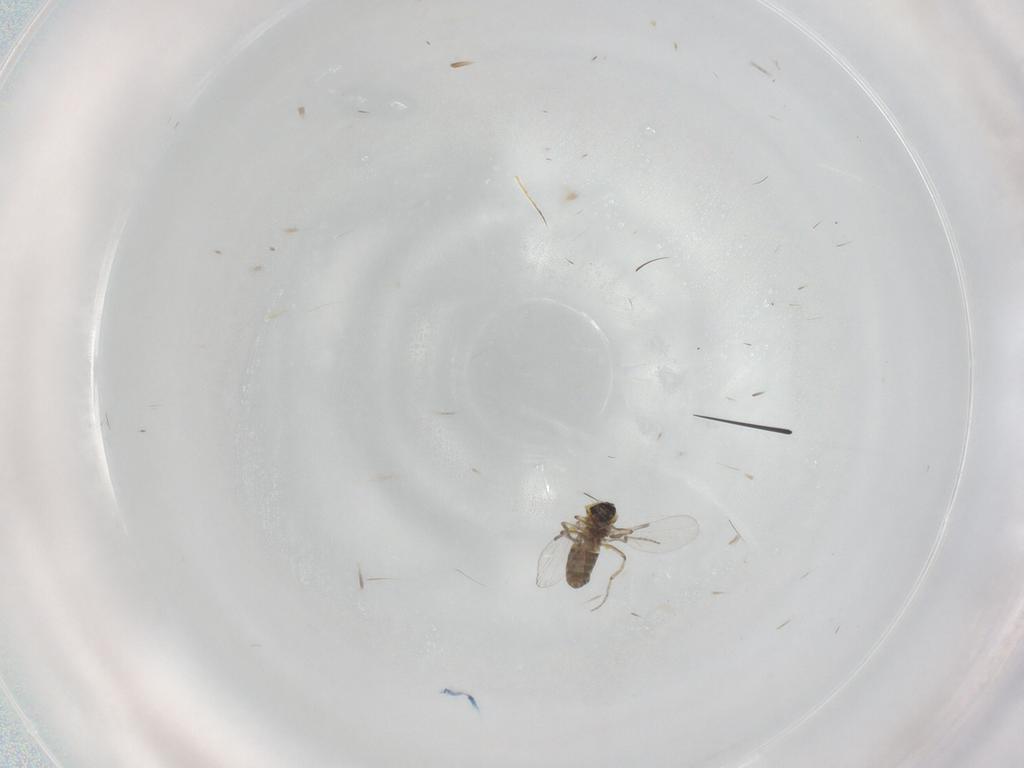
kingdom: Animalia
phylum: Arthropoda
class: Insecta
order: Diptera
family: Ceratopogonidae
